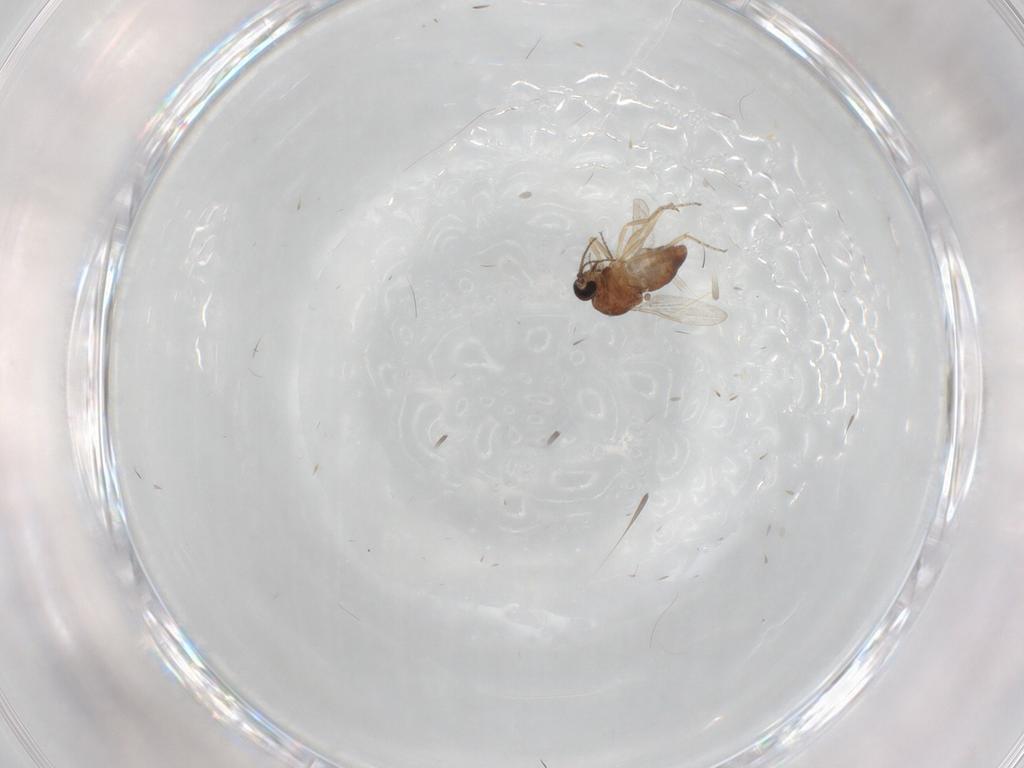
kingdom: Animalia
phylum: Arthropoda
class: Insecta
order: Diptera
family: Ceratopogonidae
